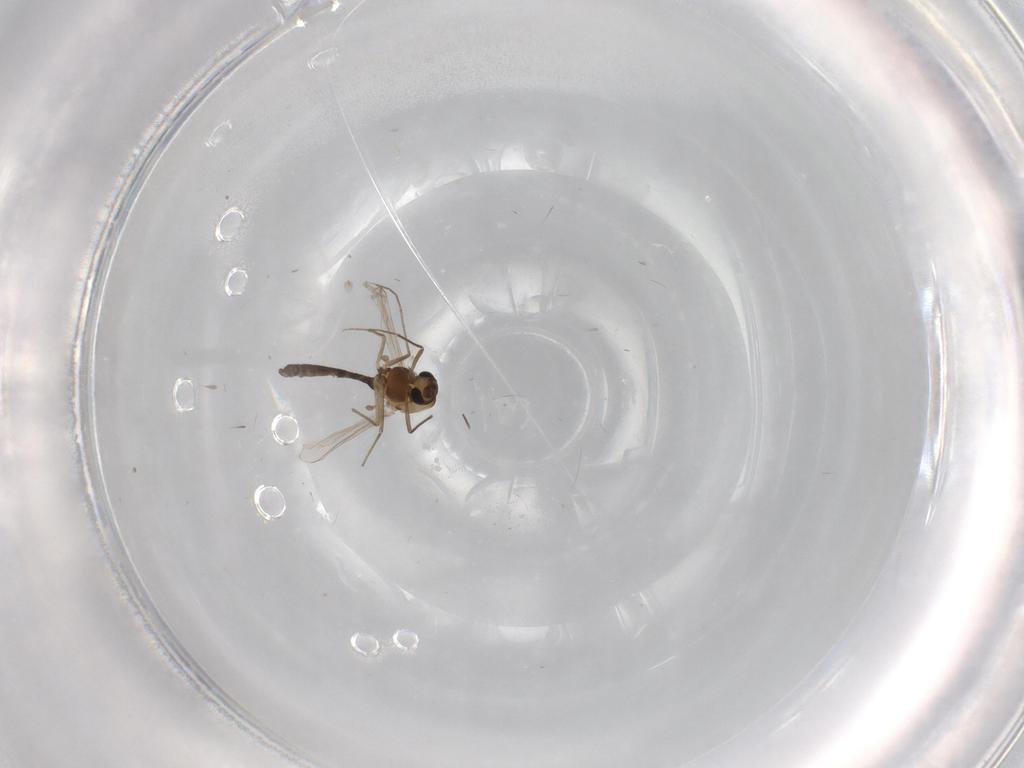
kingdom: Animalia
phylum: Arthropoda
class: Insecta
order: Diptera
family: Chironomidae
